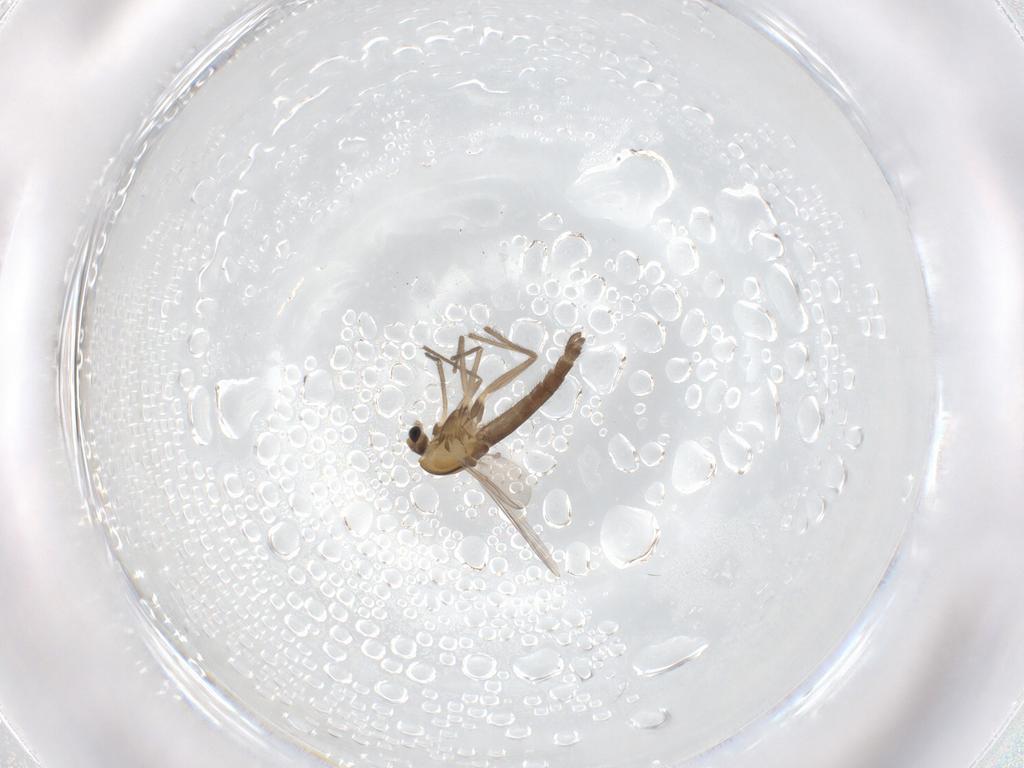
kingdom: Animalia
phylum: Arthropoda
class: Insecta
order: Diptera
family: Chironomidae
